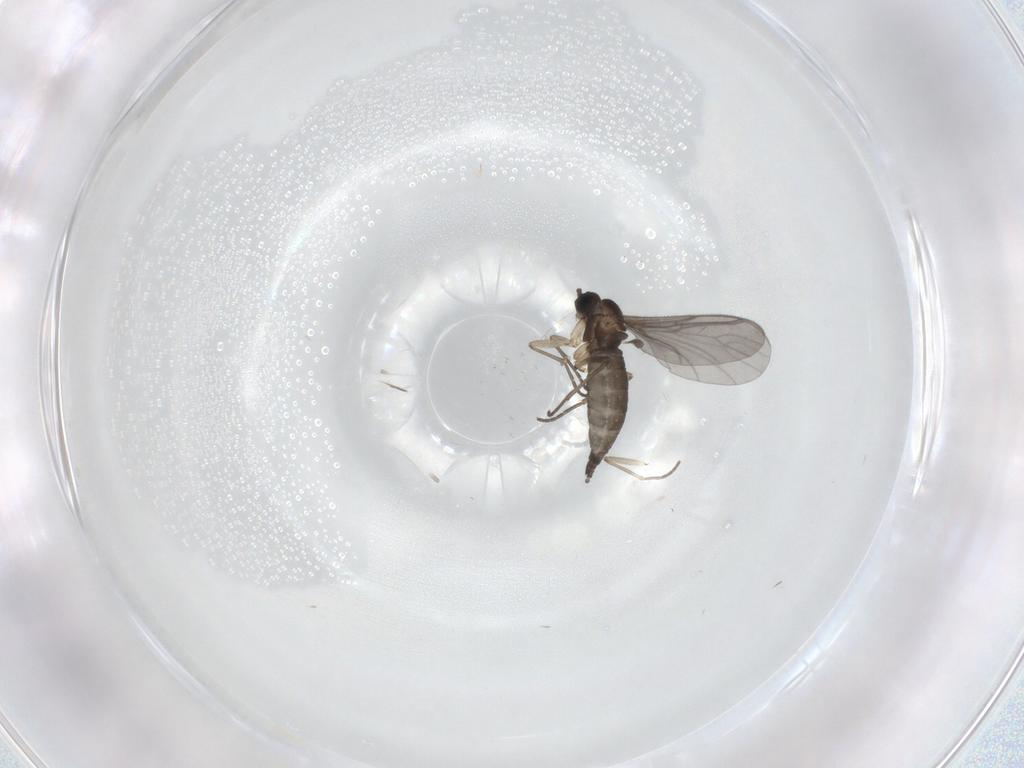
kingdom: Animalia
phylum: Arthropoda
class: Insecta
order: Diptera
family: Sciaridae
